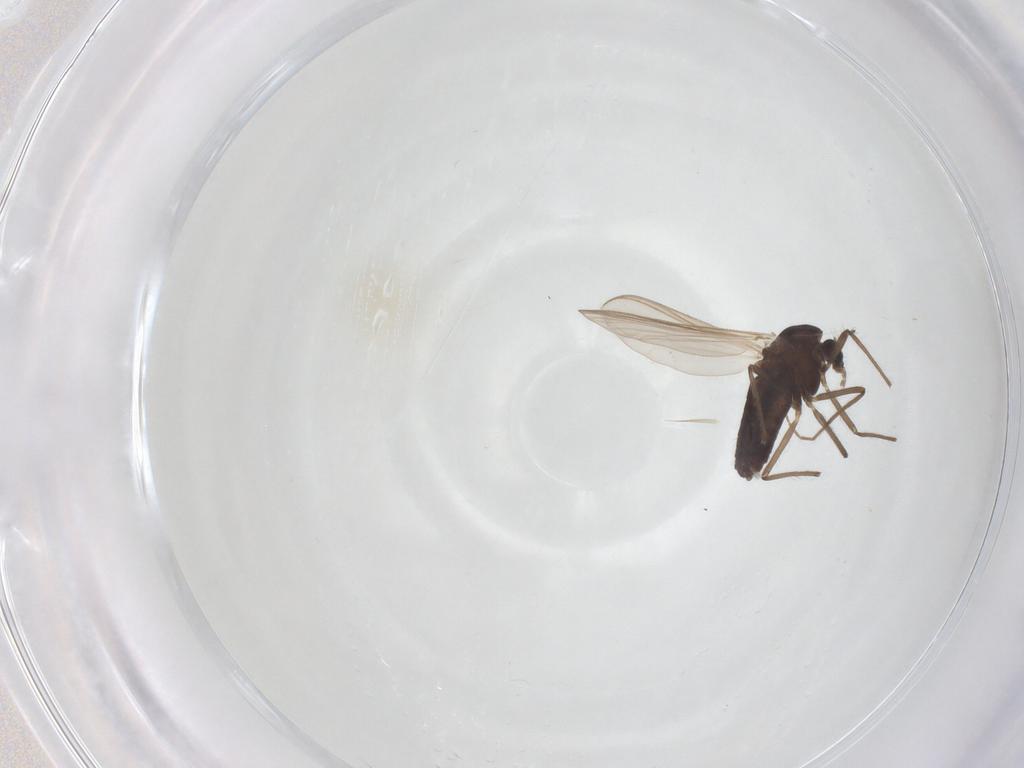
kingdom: Animalia
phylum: Arthropoda
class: Insecta
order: Diptera
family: Chironomidae
